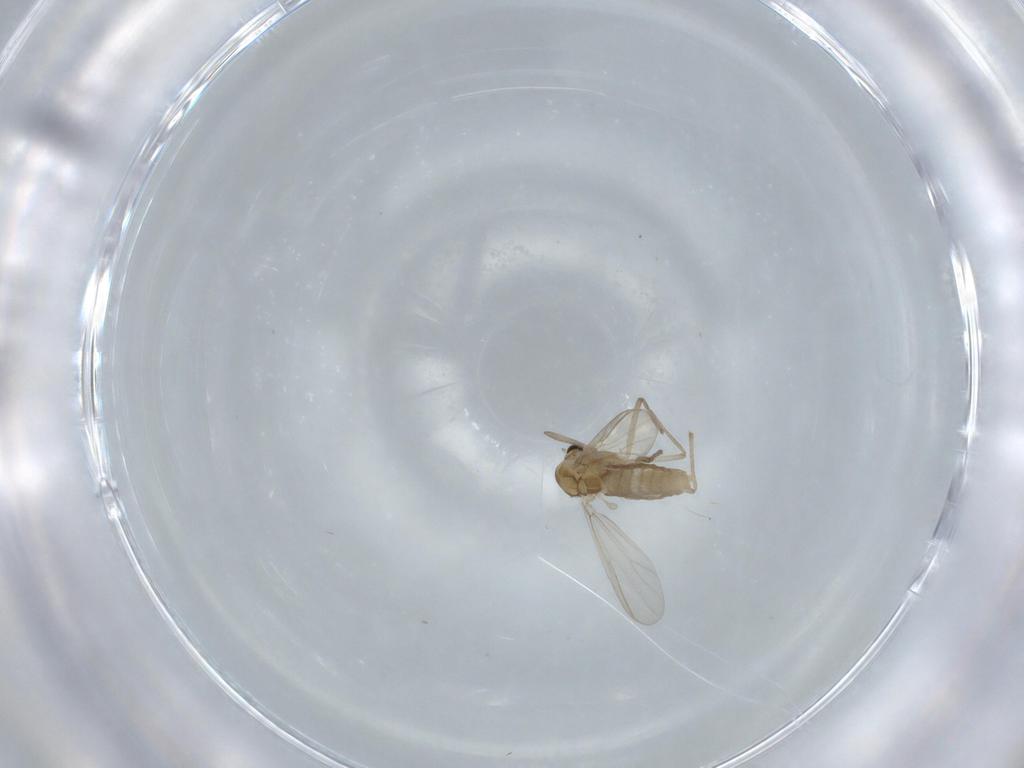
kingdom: Animalia
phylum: Arthropoda
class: Insecta
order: Diptera
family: Chironomidae
